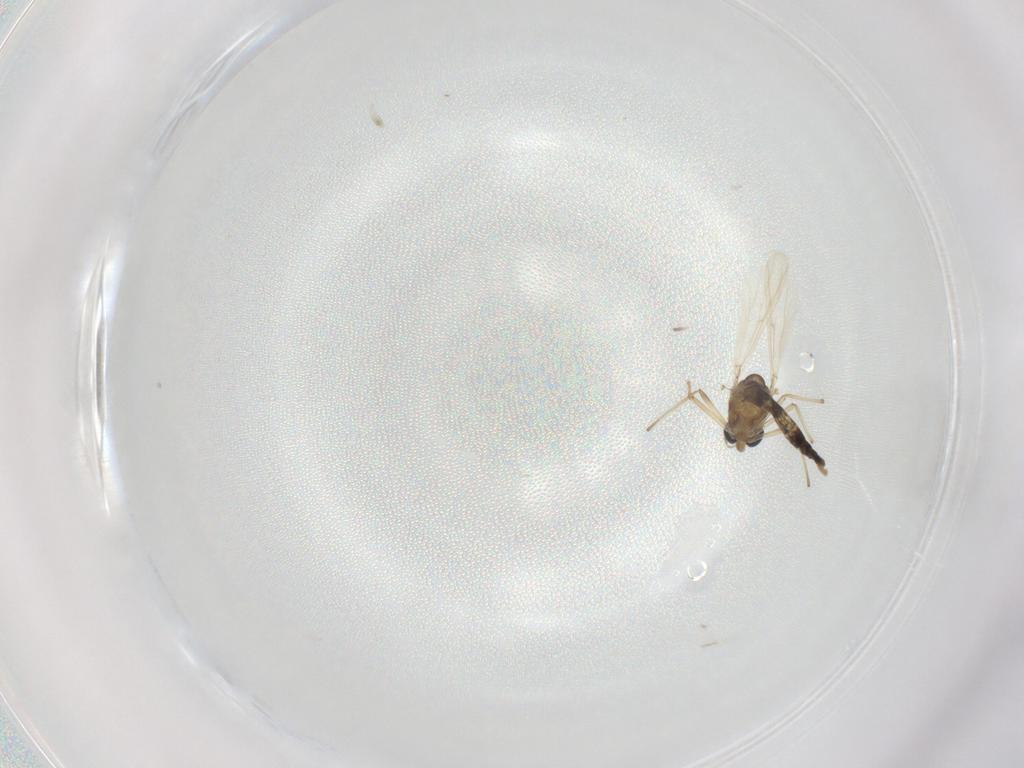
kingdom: Animalia
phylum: Arthropoda
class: Insecta
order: Diptera
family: Chironomidae
